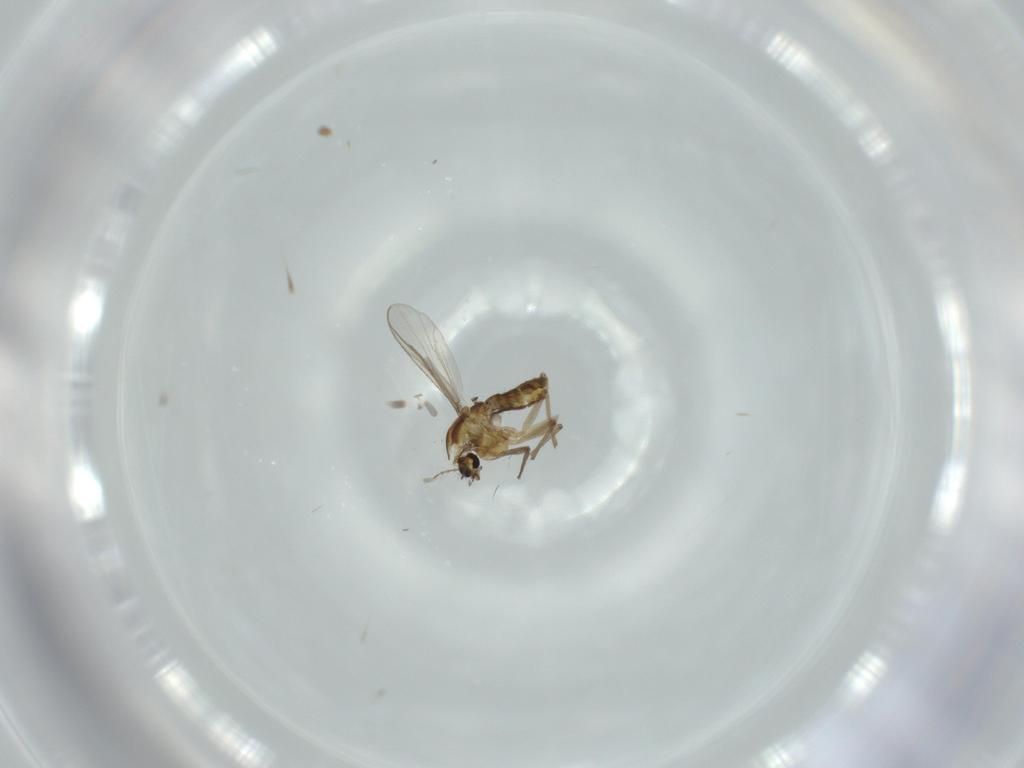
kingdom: Animalia
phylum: Arthropoda
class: Insecta
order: Diptera
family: Chironomidae
